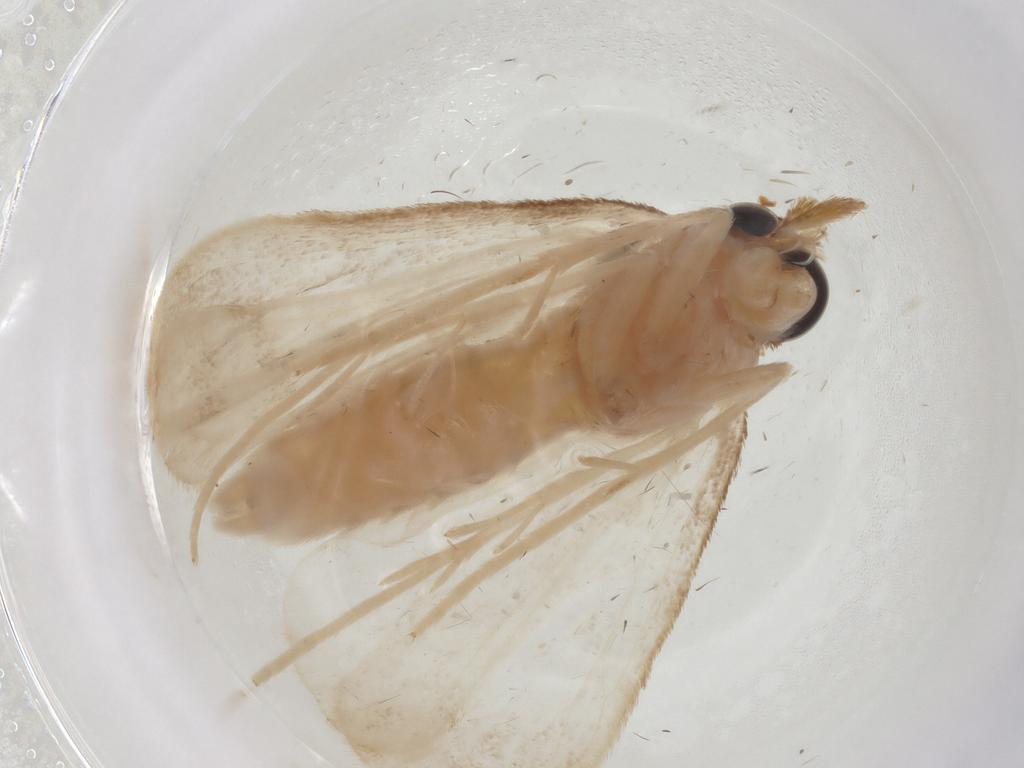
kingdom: Animalia
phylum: Arthropoda
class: Insecta
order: Lepidoptera
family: Crambidae
